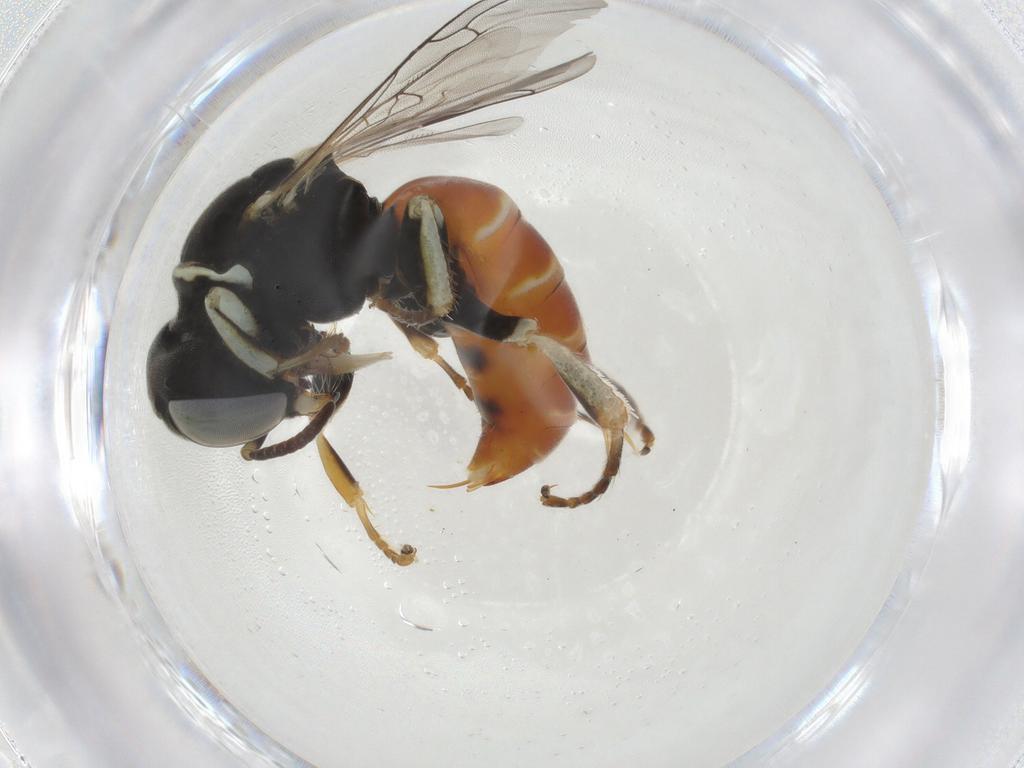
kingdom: Animalia
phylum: Arthropoda
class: Insecta
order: Hymenoptera
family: Crabronidae
